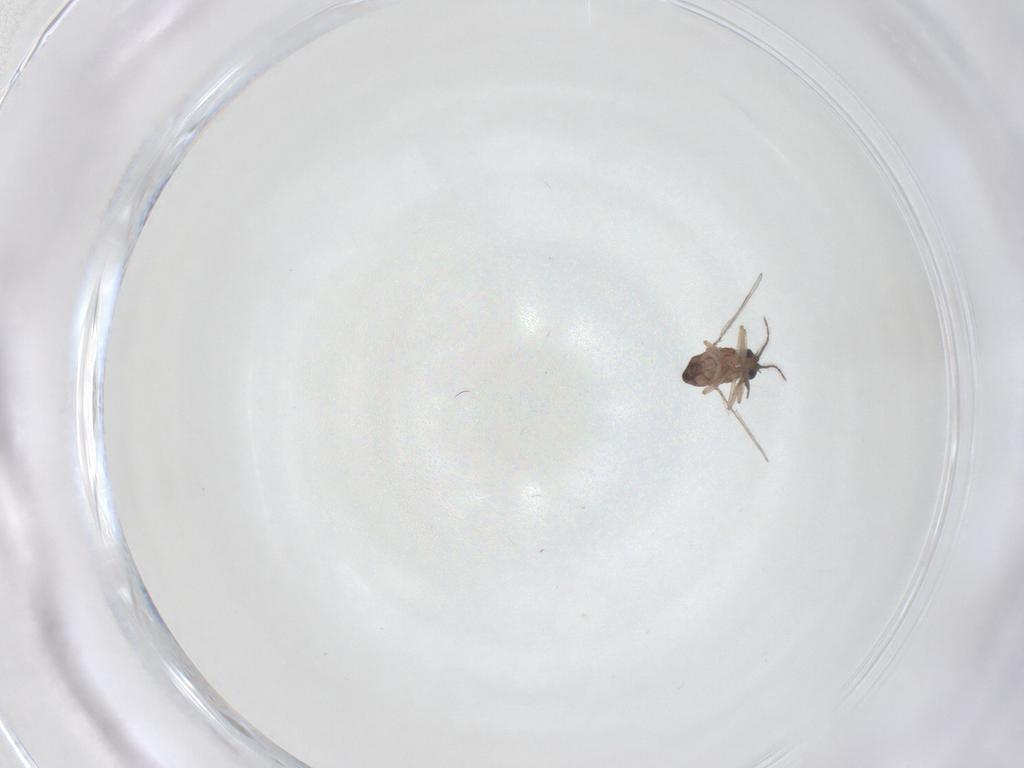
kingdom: Animalia
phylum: Arthropoda
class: Insecta
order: Diptera
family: Ceratopogonidae
